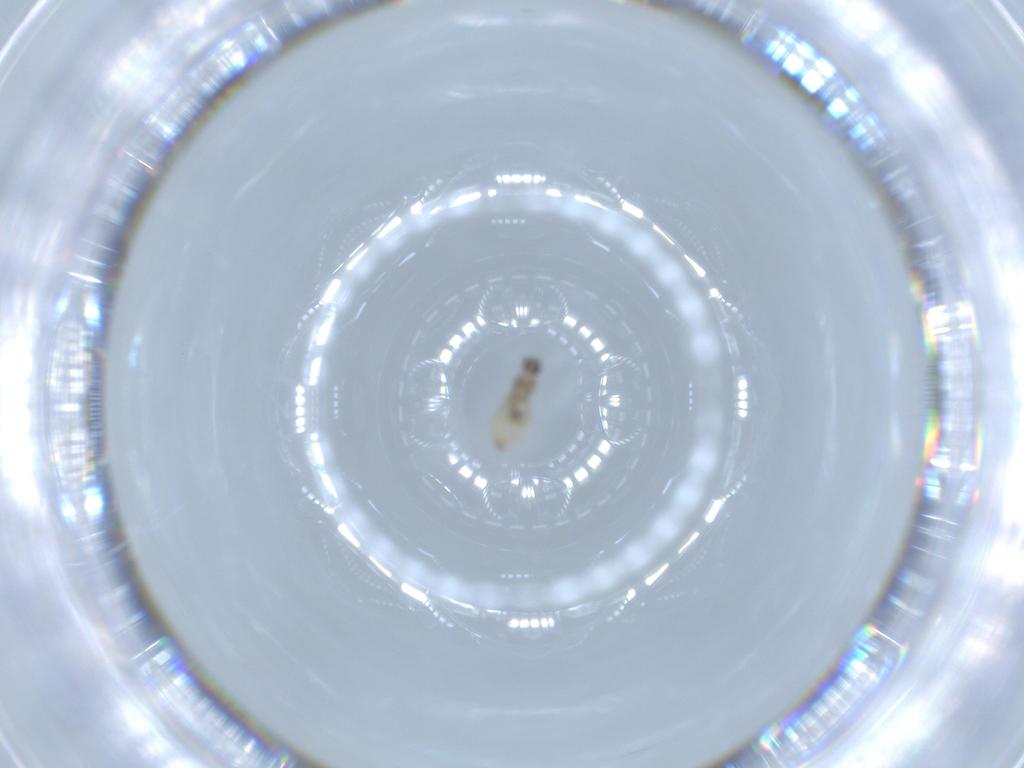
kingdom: Animalia
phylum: Arthropoda
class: Insecta
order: Diptera
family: Cecidomyiidae
